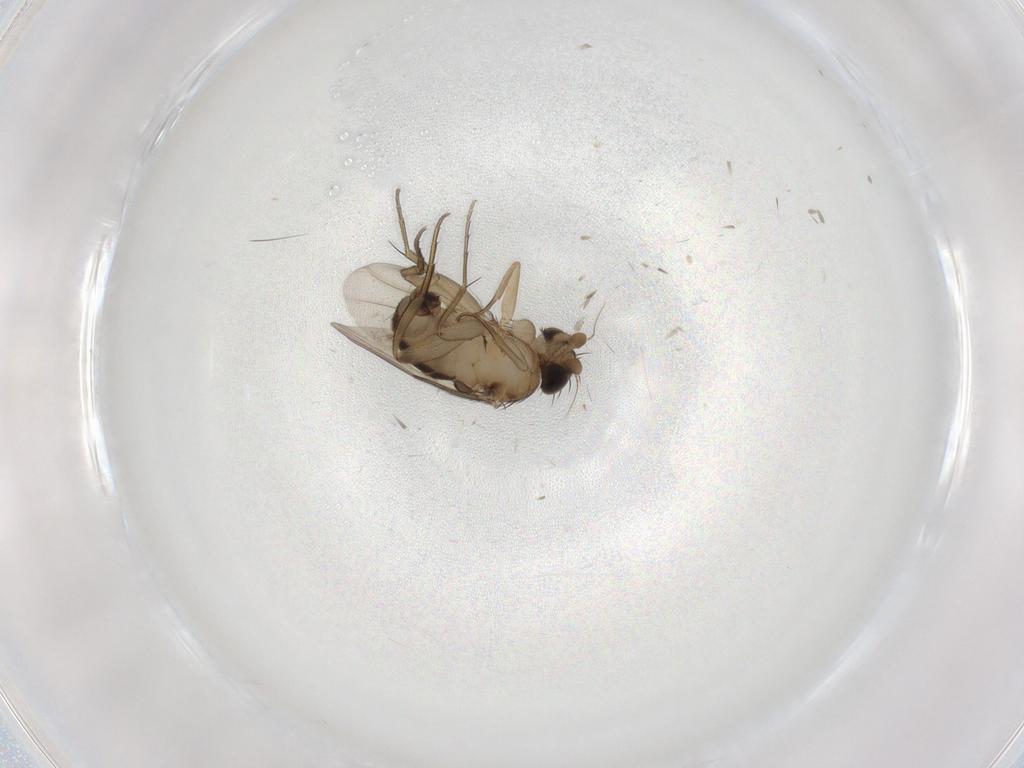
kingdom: Animalia
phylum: Arthropoda
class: Insecta
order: Diptera
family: Phoridae
